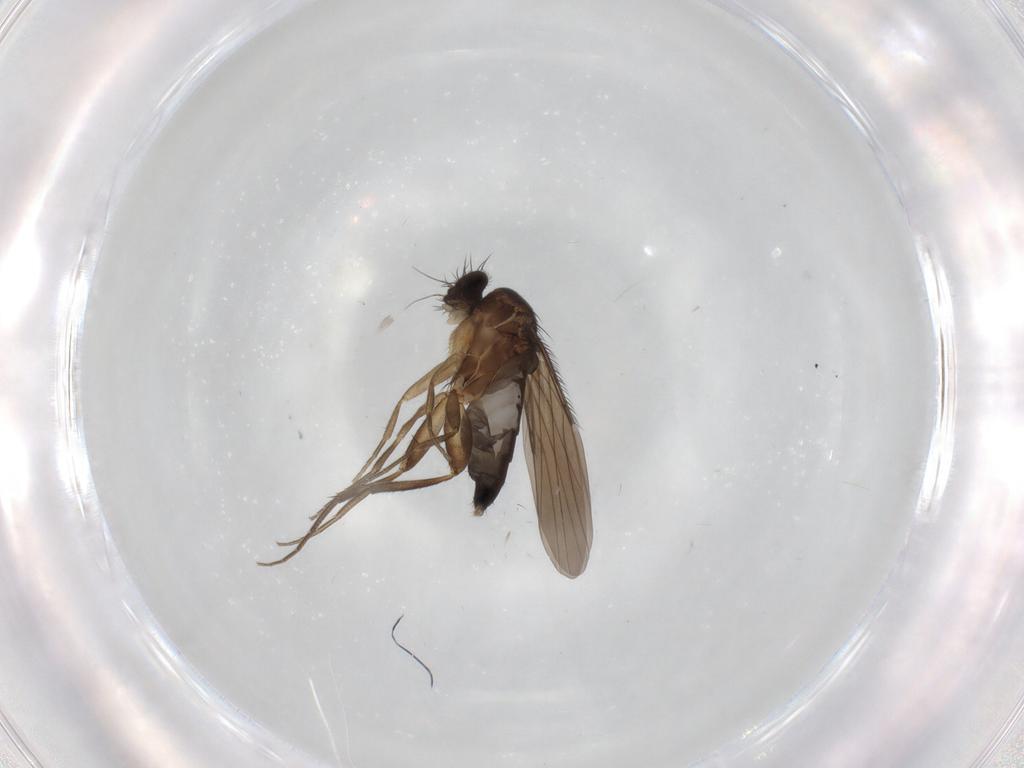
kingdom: Animalia
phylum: Arthropoda
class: Insecta
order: Diptera
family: Phoridae
